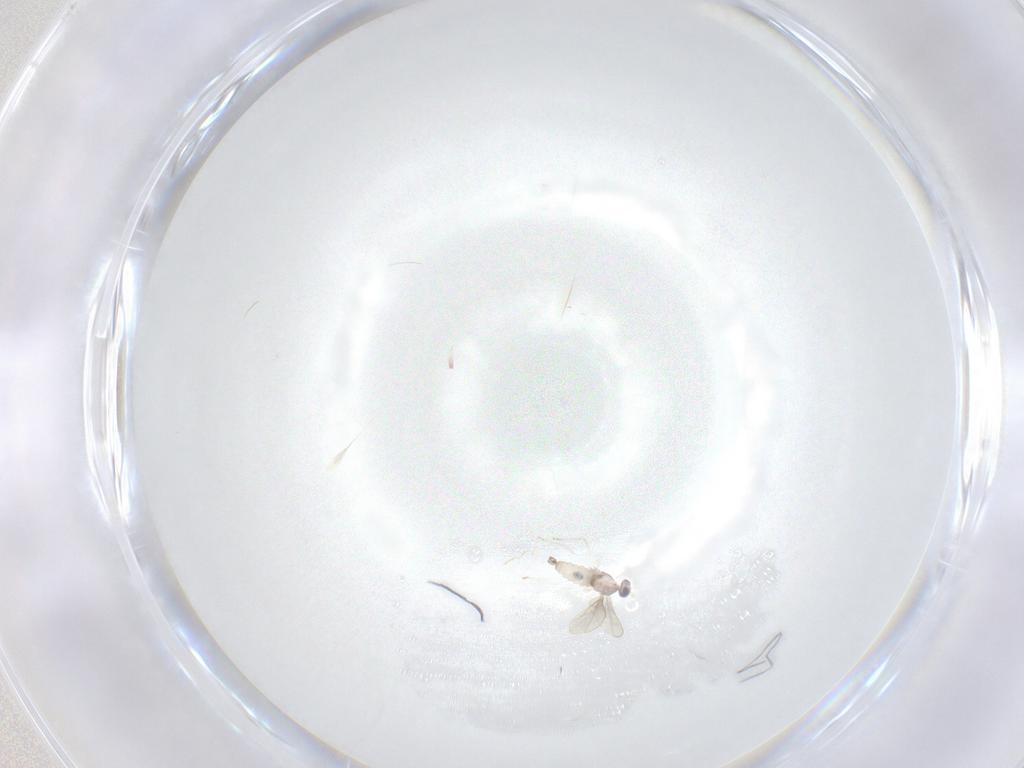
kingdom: Animalia
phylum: Arthropoda
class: Insecta
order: Diptera
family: Cecidomyiidae
